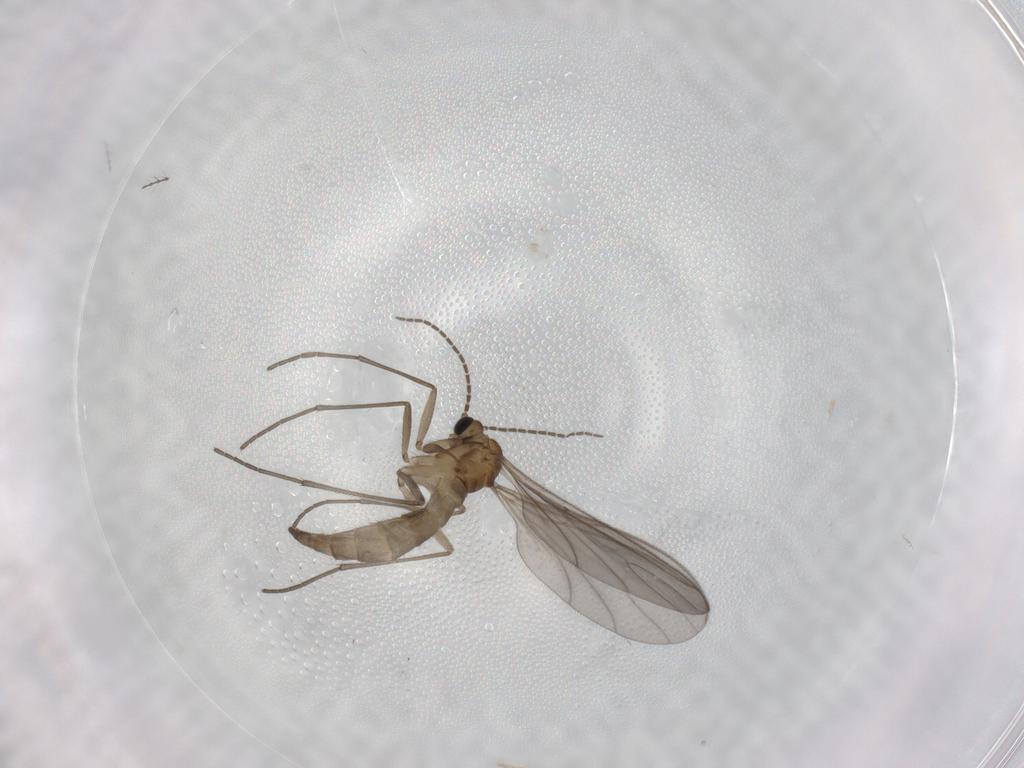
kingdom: Animalia
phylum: Arthropoda
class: Insecta
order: Diptera
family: Sciaridae
